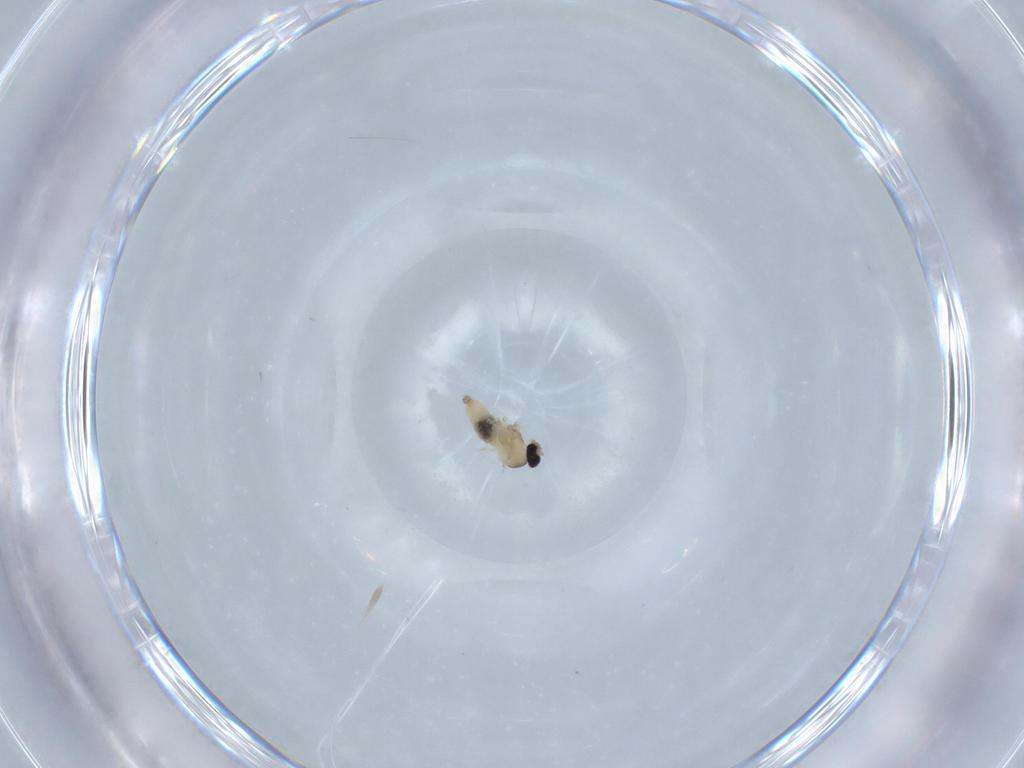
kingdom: Animalia
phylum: Arthropoda
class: Insecta
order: Diptera
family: Cecidomyiidae
